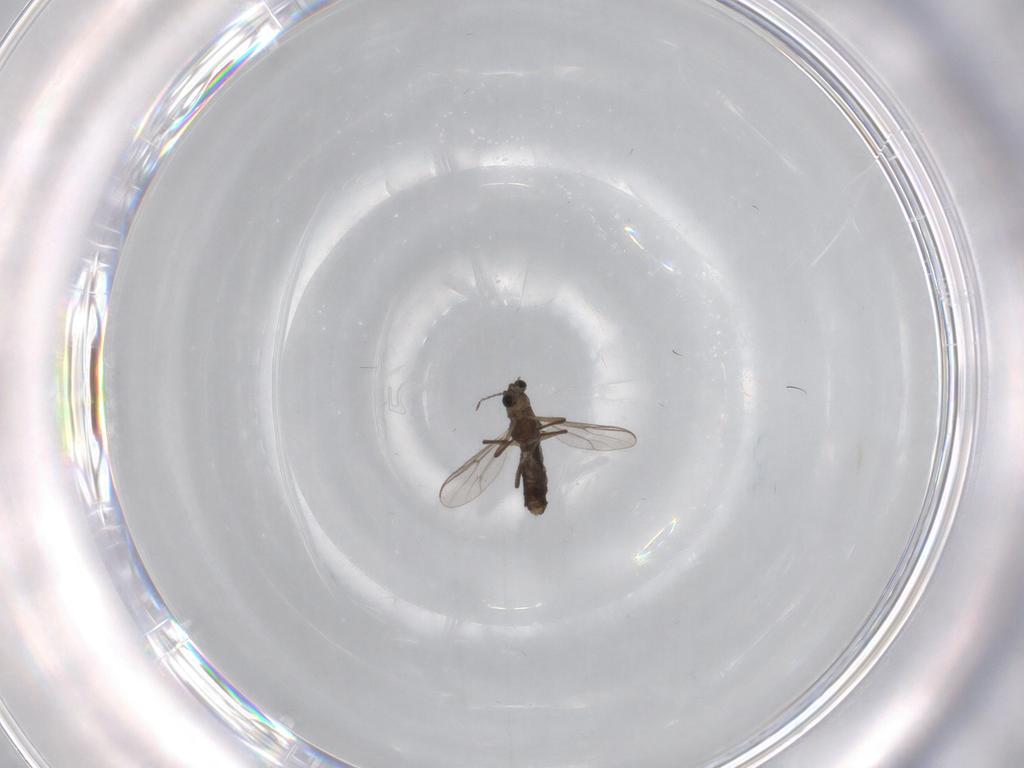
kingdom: Animalia
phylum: Arthropoda
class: Insecta
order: Diptera
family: Chironomidae
